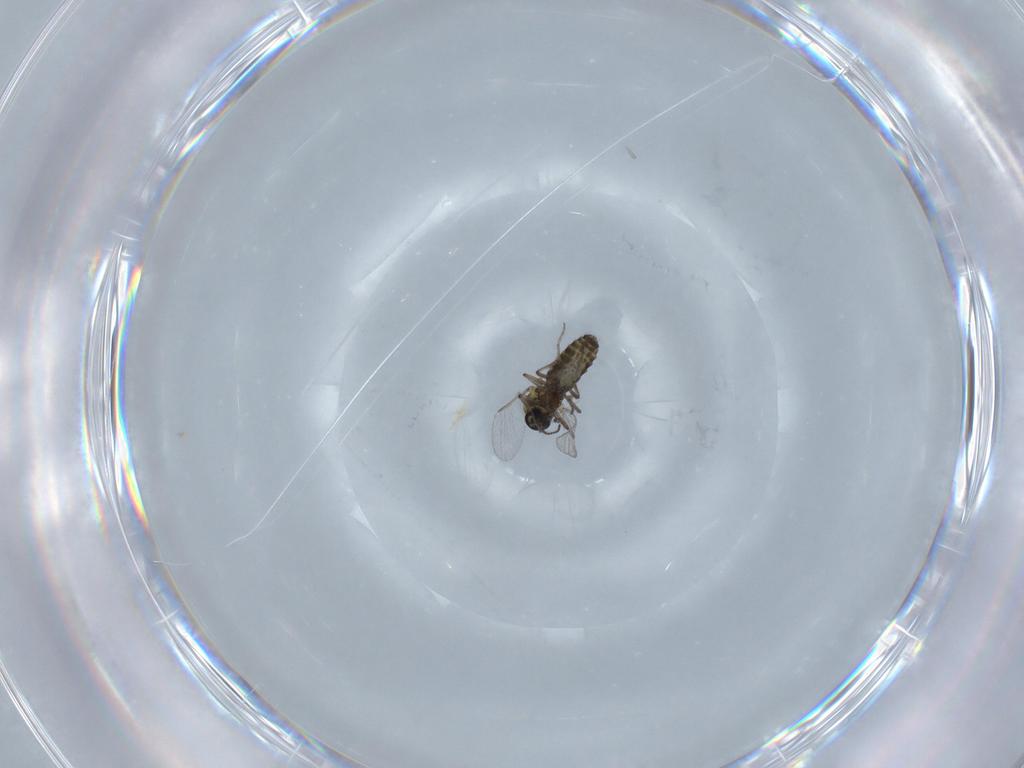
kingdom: Animalia
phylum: Arthropoda
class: Insecta
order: Diptera
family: Ceratopogonidae
